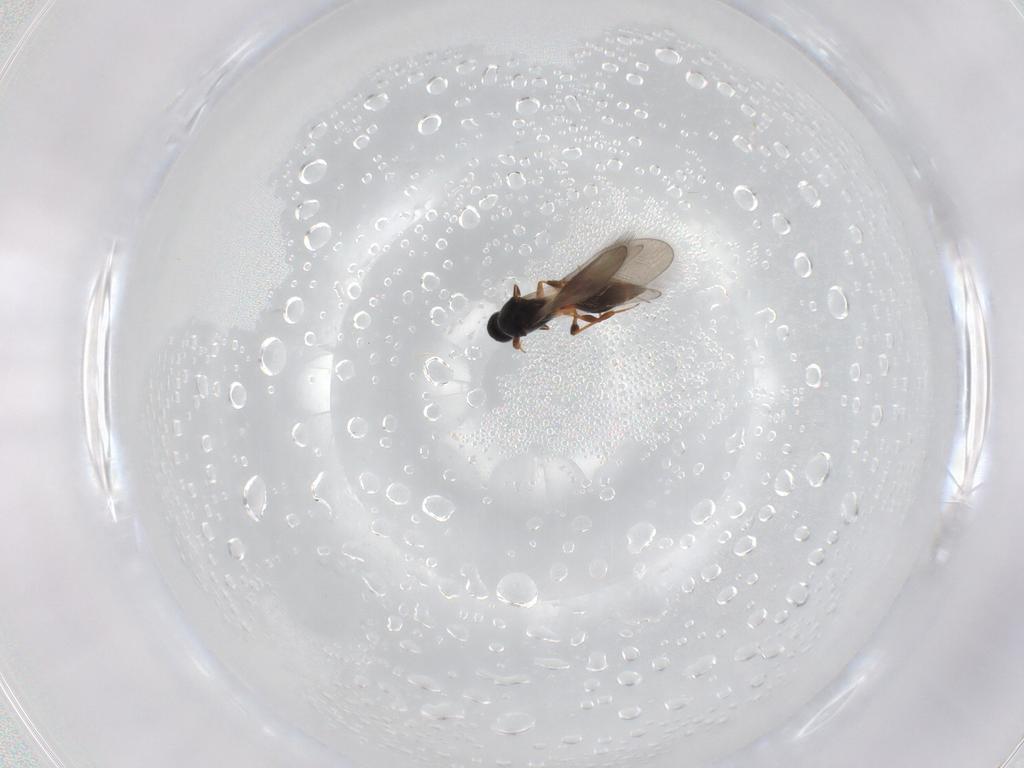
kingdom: Animalia
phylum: Arthropoda
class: Insecta
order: Hymenoptera
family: Platygastridae
